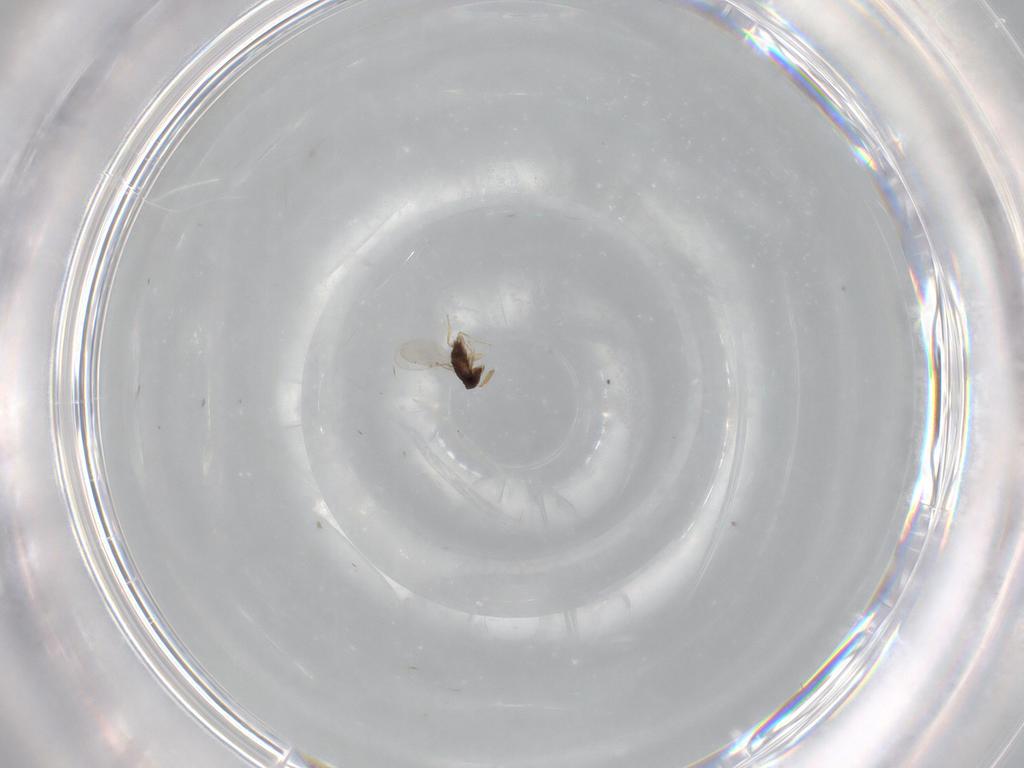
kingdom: Animalia
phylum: Arthropoda
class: Insecta
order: Hymenoptera
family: Encyrtidae
